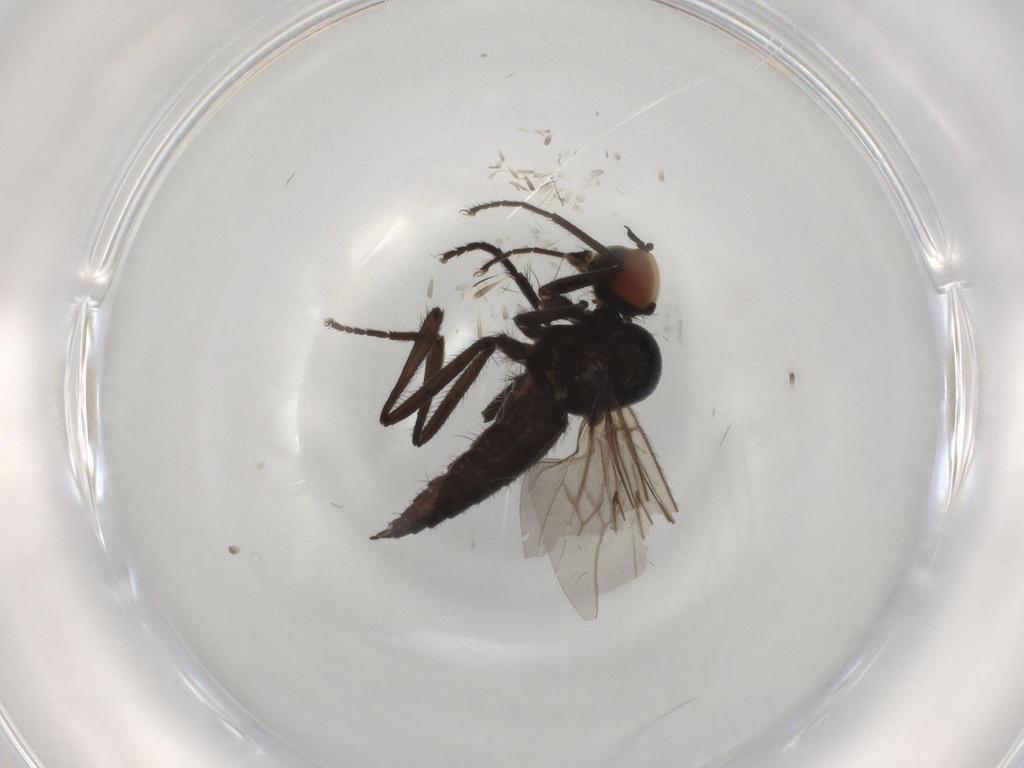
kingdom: Animalia
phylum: Arthropoda
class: Insecta
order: Diptera
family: Hybotidae
